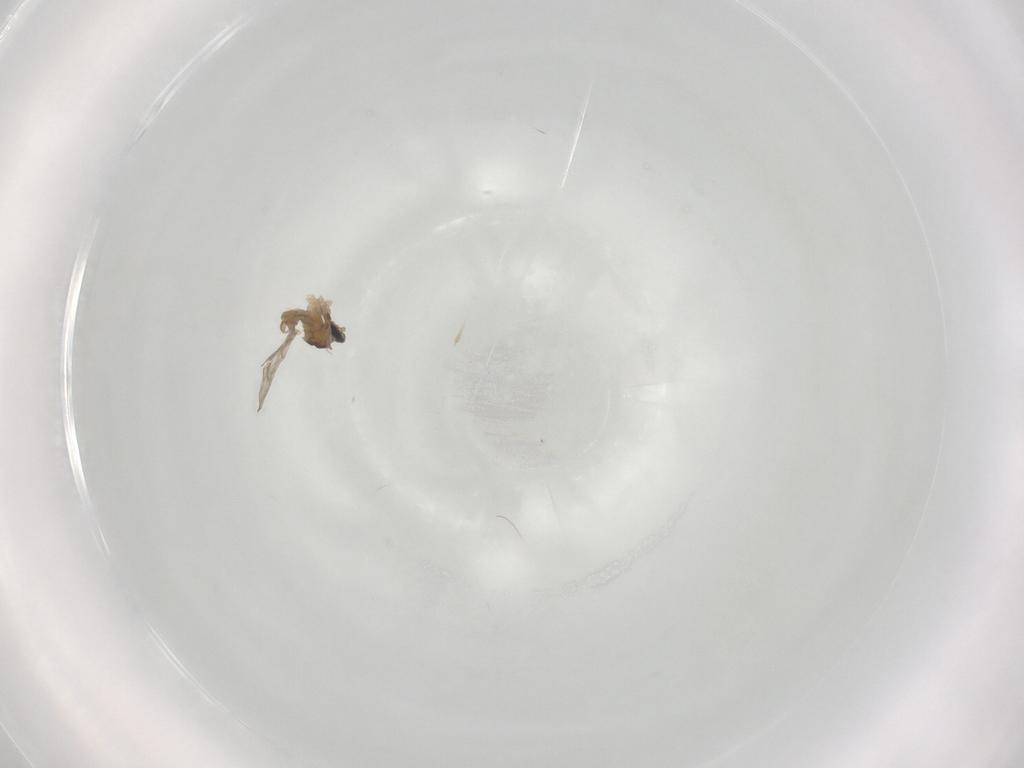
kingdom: Animalia
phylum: Arthropoda
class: Insecta
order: Diptera
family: Cecidomyiidae
